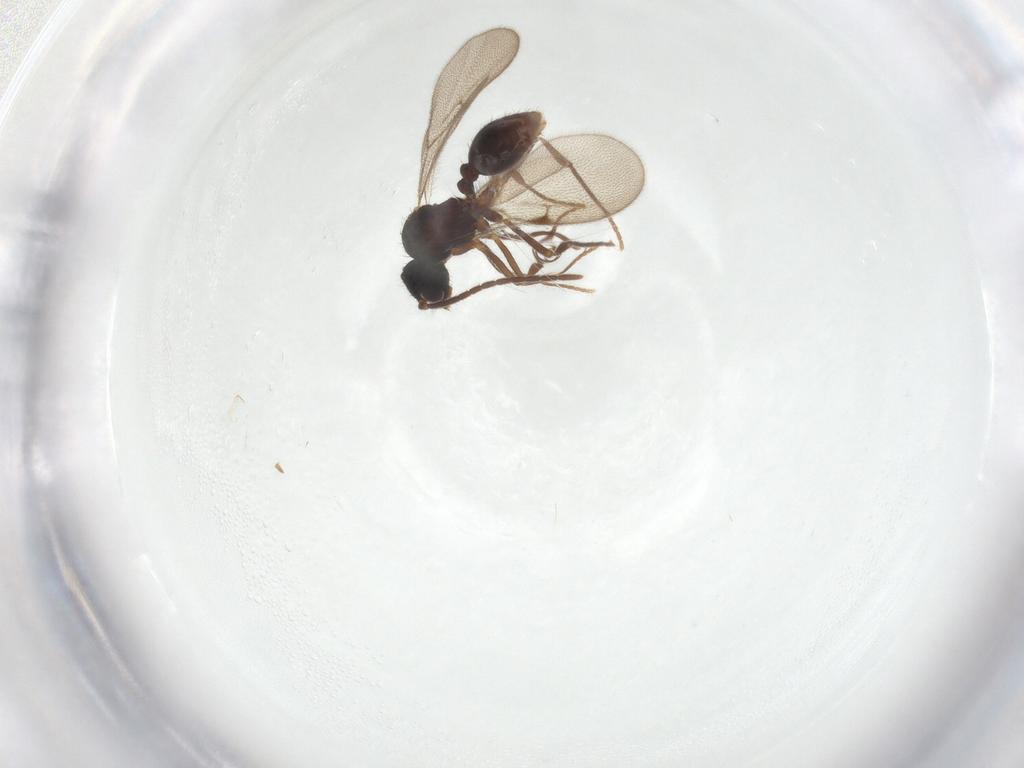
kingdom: Animalia
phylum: Arthropoda
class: Insecta
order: Hymenoptera
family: Formicidae
